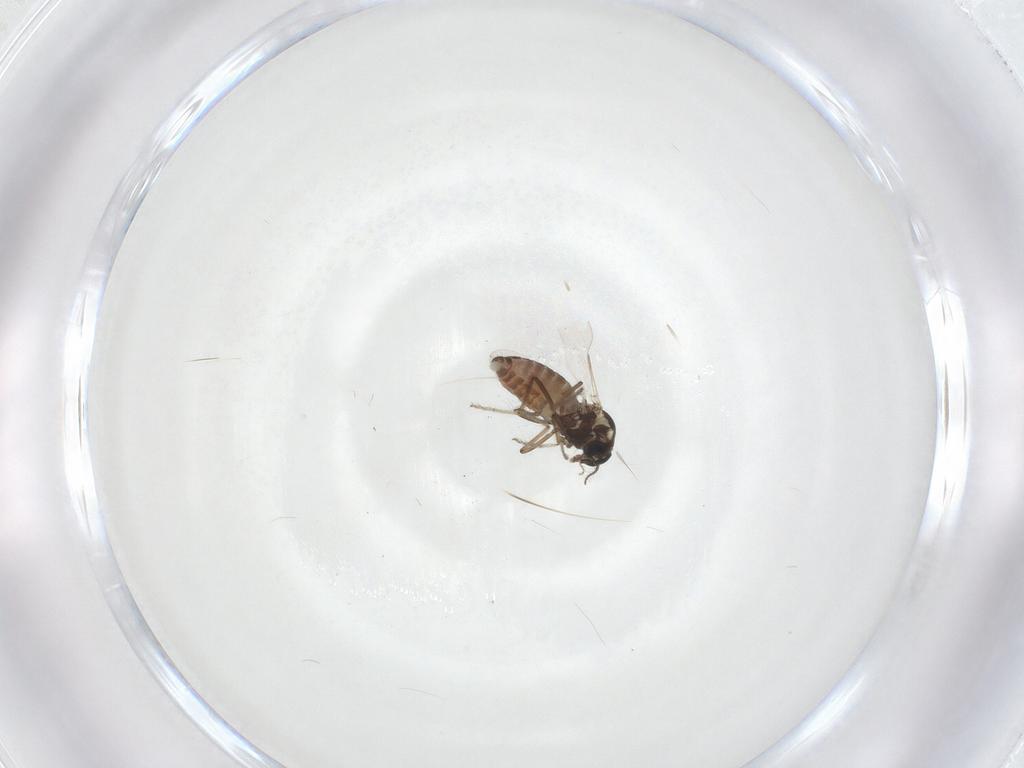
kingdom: Animalia
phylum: Arthropoda
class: Insecta
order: Diptera
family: Ceratopogonidae
